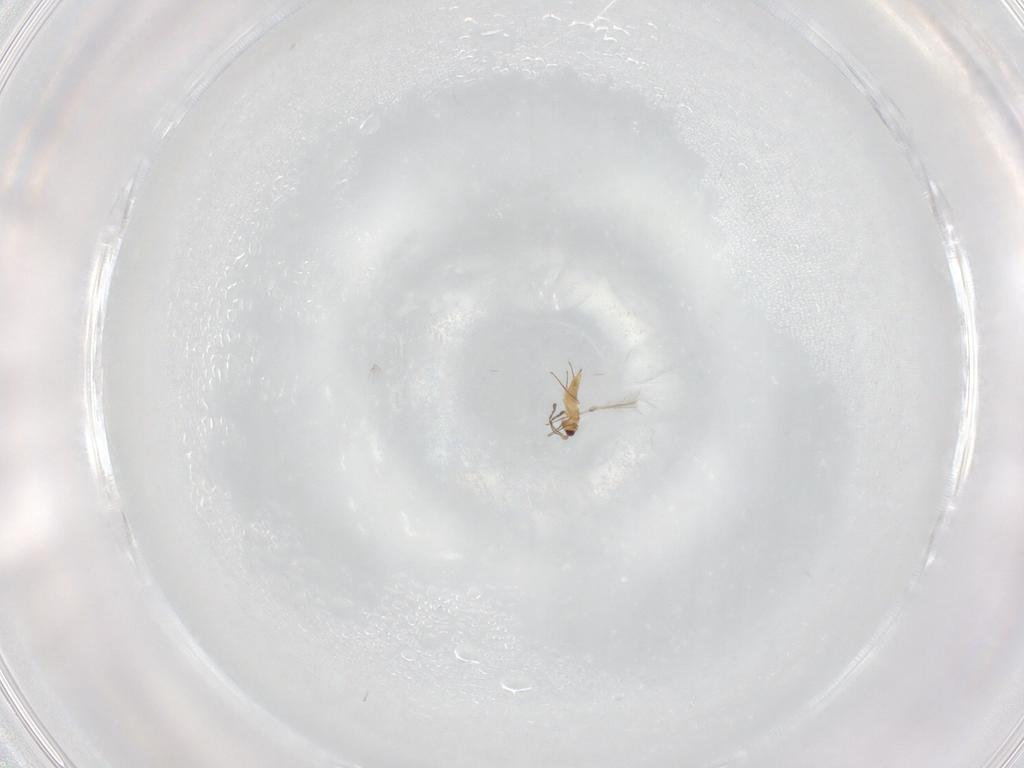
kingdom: Animalia
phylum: Arthropoda
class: Insecta
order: Hymenoptera
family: Mymaridae
